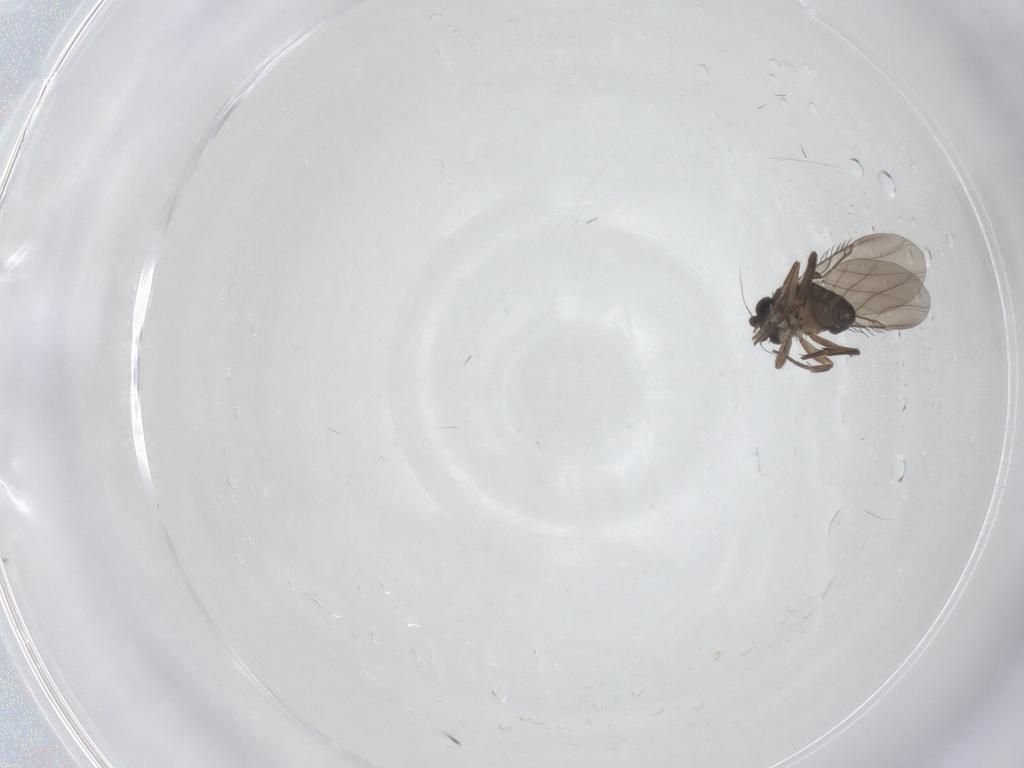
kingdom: Animalia
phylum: Arthropoda
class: Insecta
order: Diptera
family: Phoridae
